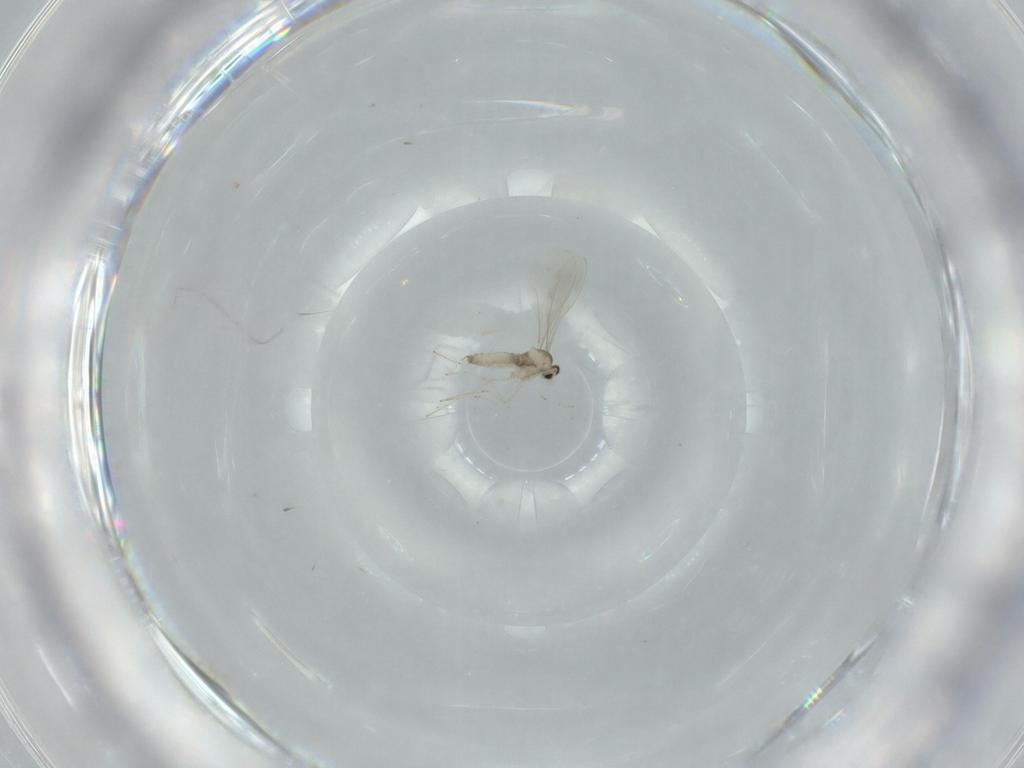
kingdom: Animalia
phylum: Arthropoda
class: Insecta
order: Diptera
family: Cecidomyiidae
